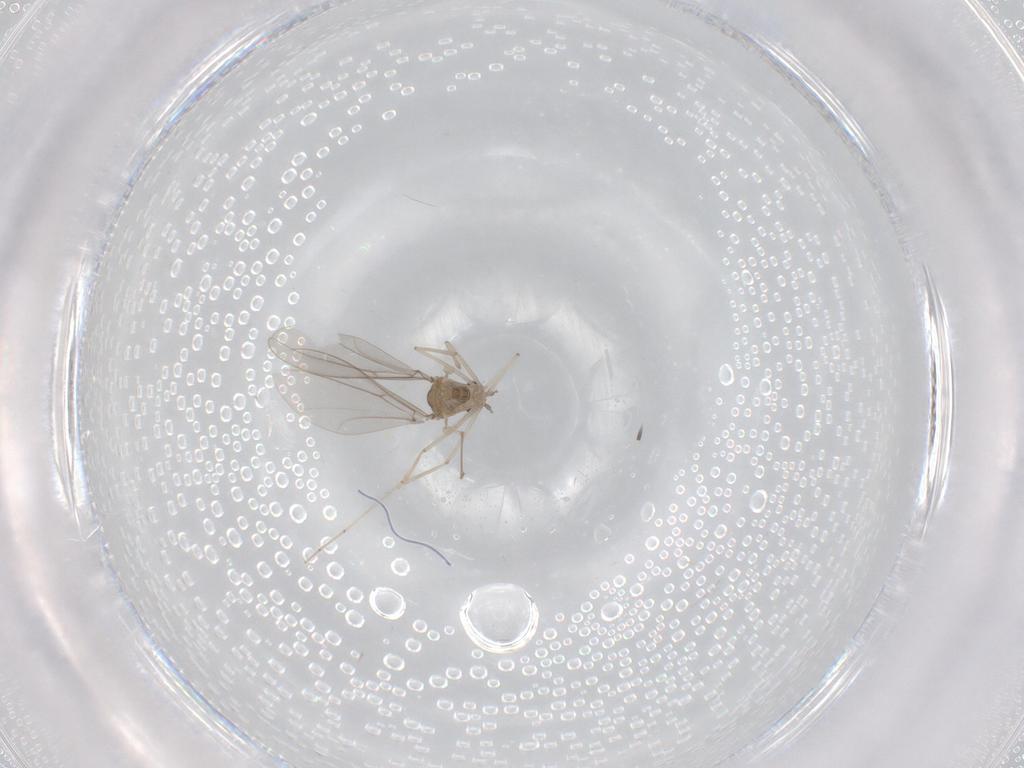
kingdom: Animalia
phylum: Arthropoda
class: Insecta
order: Diptera
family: Cecidomyiidae
